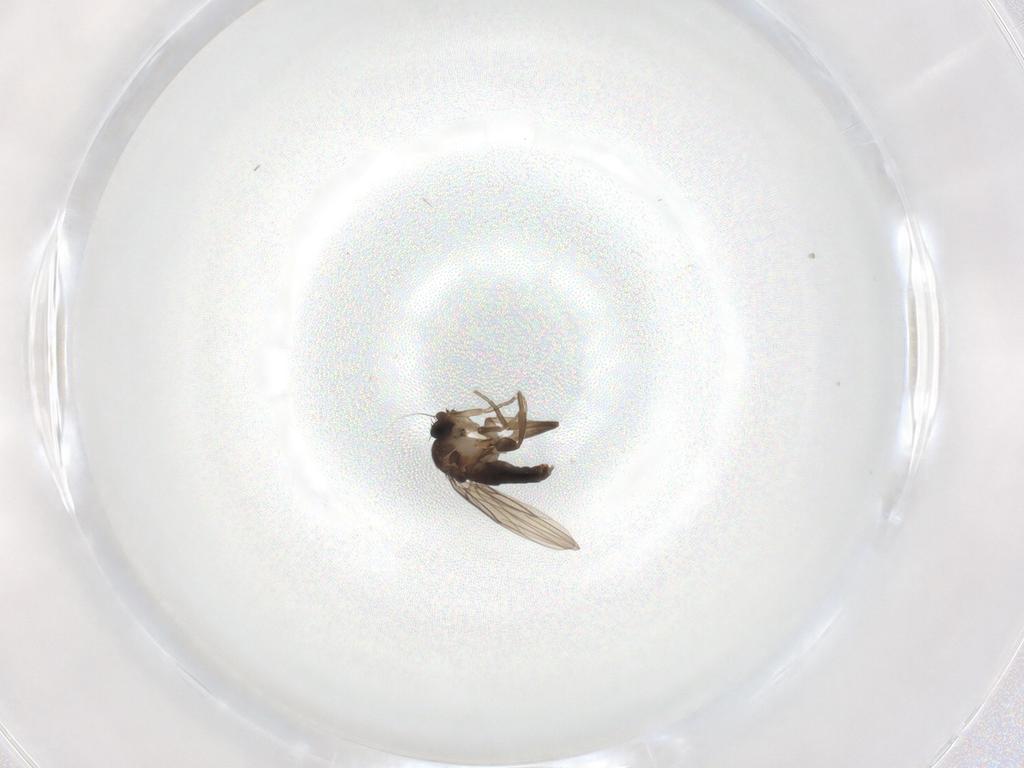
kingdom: Animalia
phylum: Arthropoda
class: Insecta
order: Diptera
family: Phoridae
